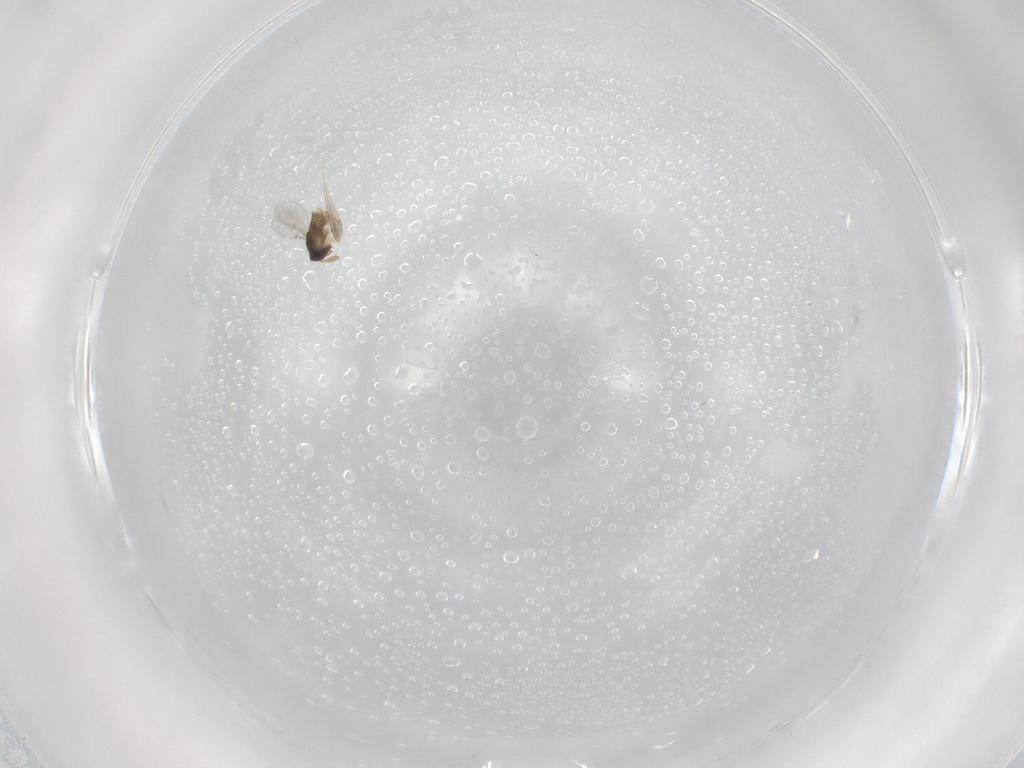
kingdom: Animalia
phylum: Arthropoda
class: Insecta
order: Hymenoptera
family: Encyrtidae
